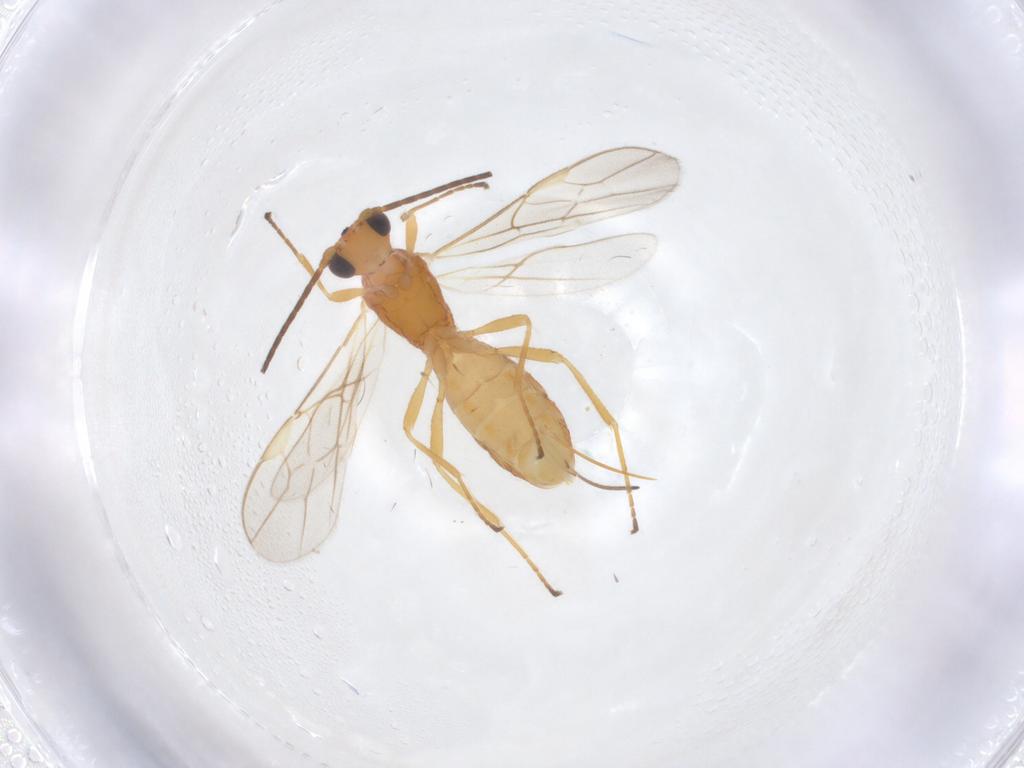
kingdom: Animalia
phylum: Arthropoda
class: Insecta
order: Hymenoptera
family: Braconidae
